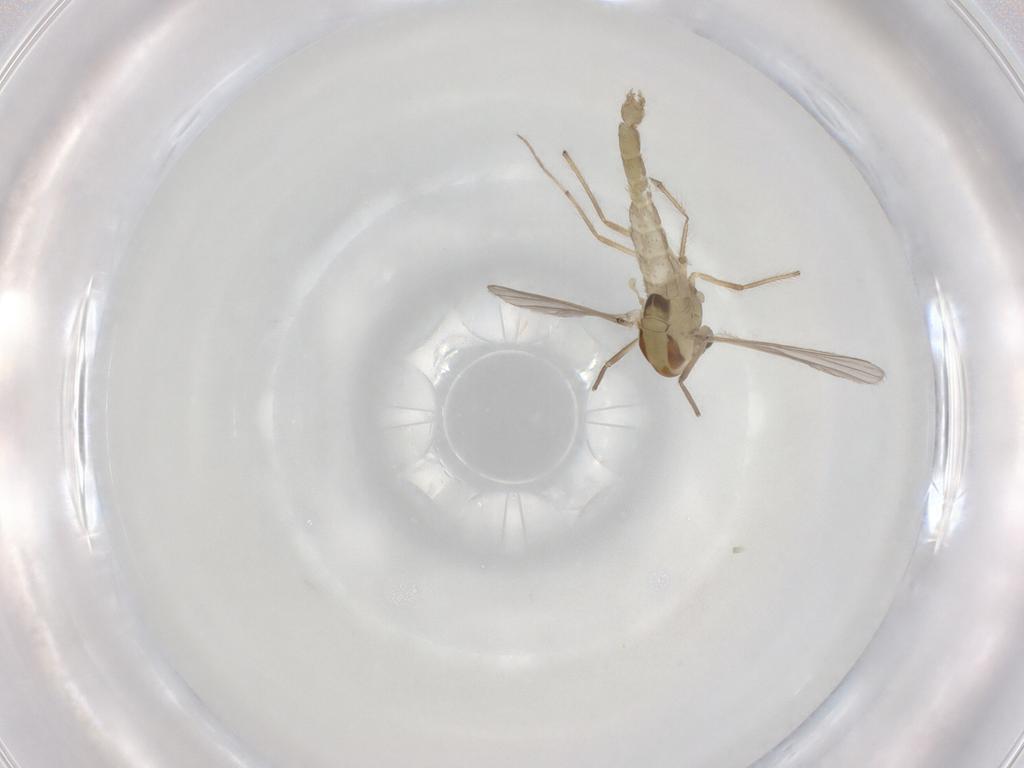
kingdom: Animalia
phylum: Arthropoda
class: Insecta
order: Diptera
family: Chironomidae
